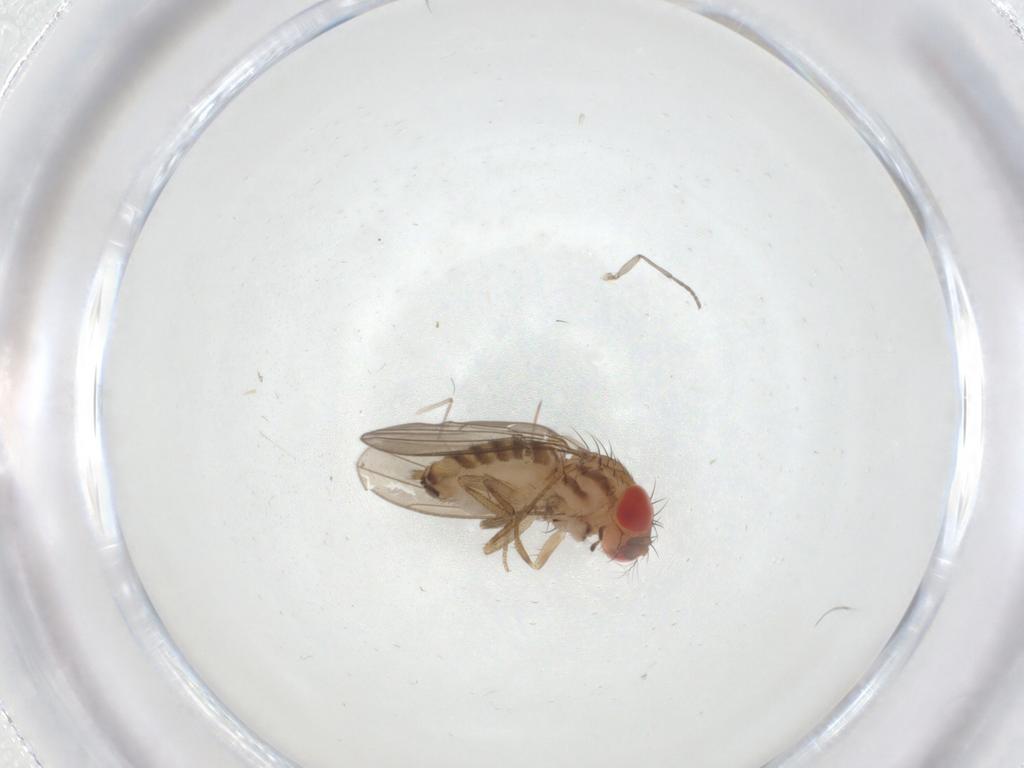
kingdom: Animalia
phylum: Arthropoda
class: Insecta
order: Diptera
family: Drosophilidae
